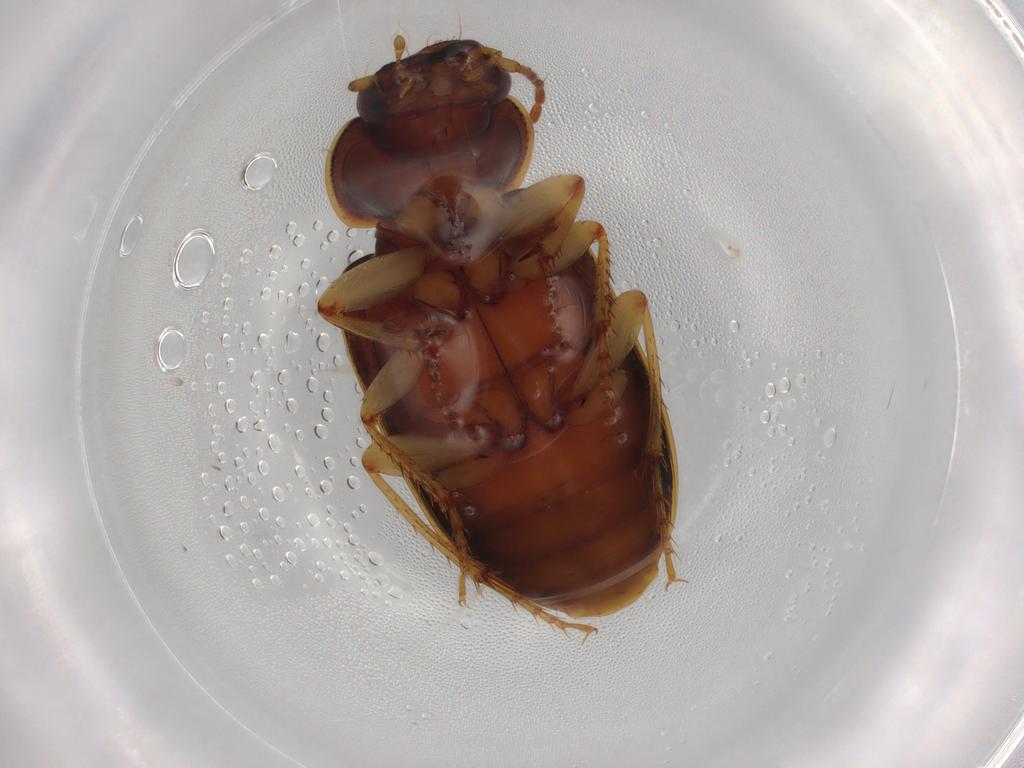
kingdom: Animalia
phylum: Arthropoda
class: Insecta
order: Coleoptera
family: Carabidae
